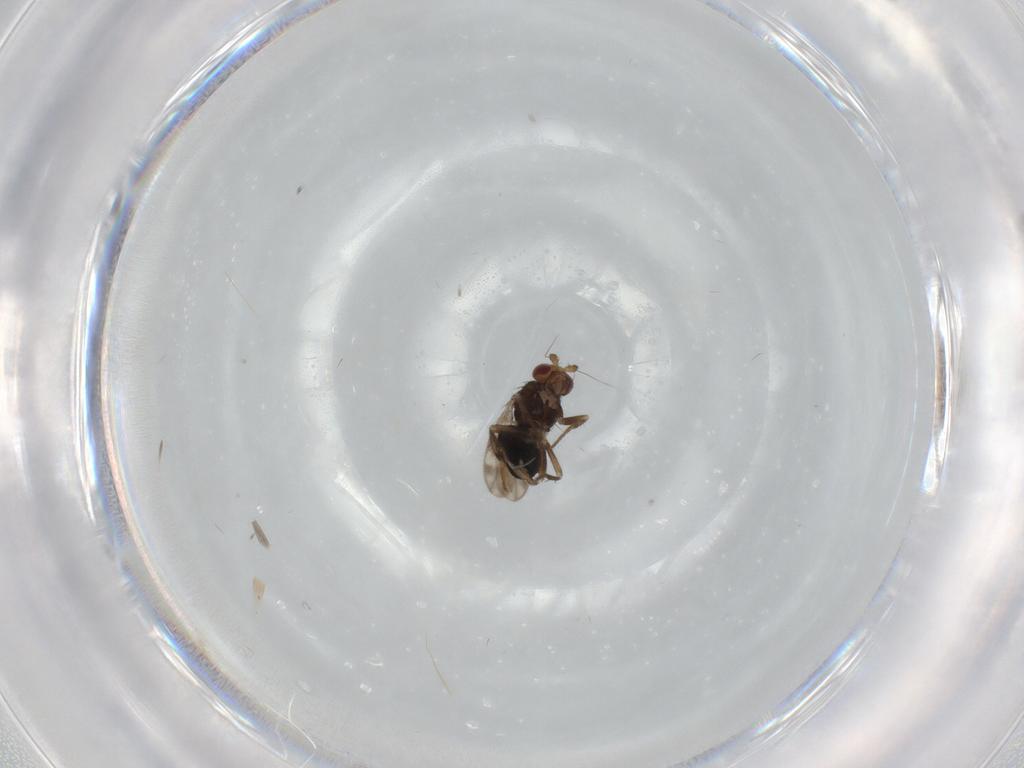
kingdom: Animalia
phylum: Arthropoda
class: Insecta
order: Diptera
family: Sphaeroceridae
